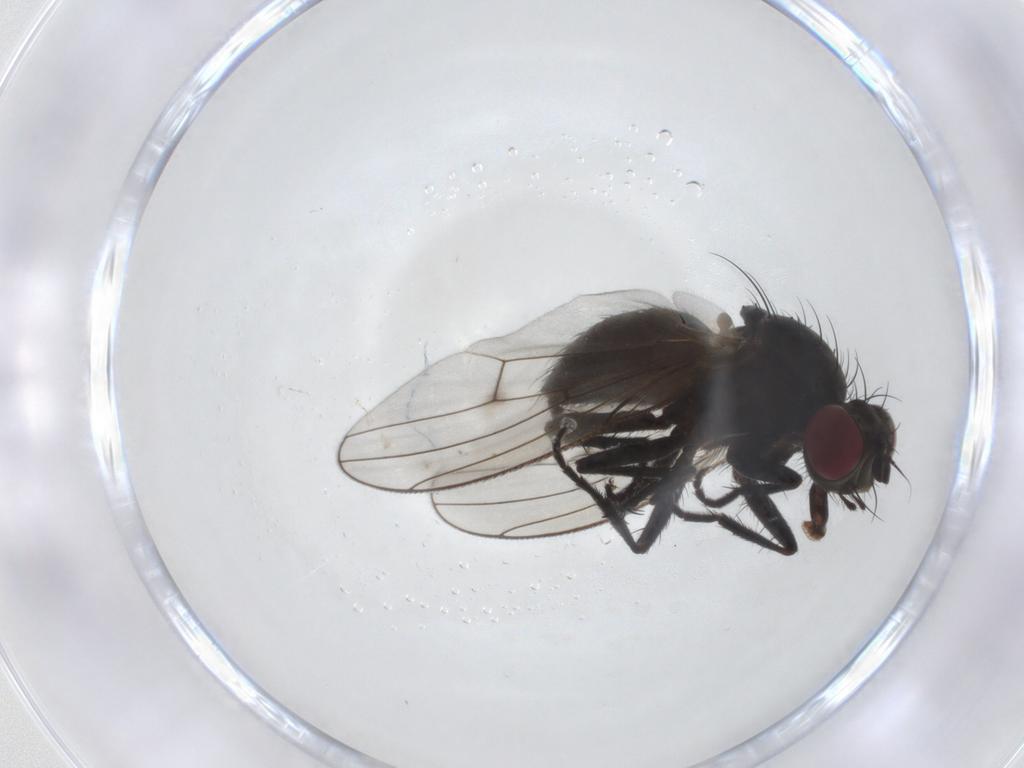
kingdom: Animalia
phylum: Arthropoda
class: Insecta
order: Diptera
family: Muscidae
